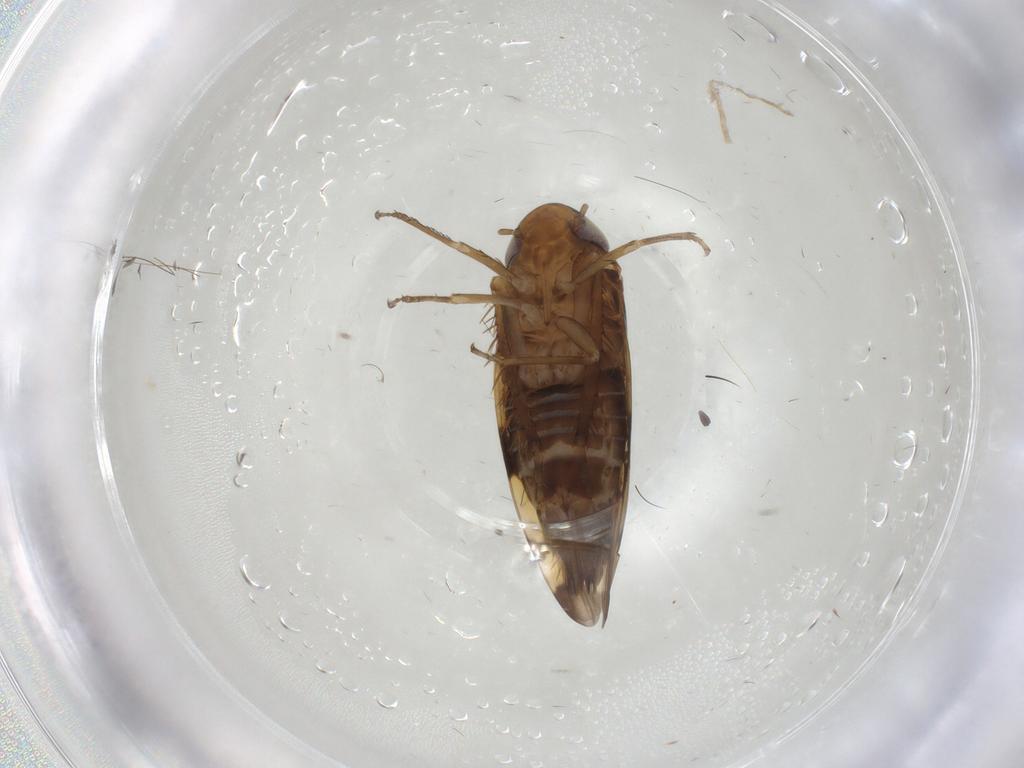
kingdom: Animalia
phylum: Arthropoda
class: Insecta
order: Hemiptera
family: Cicadellidae
